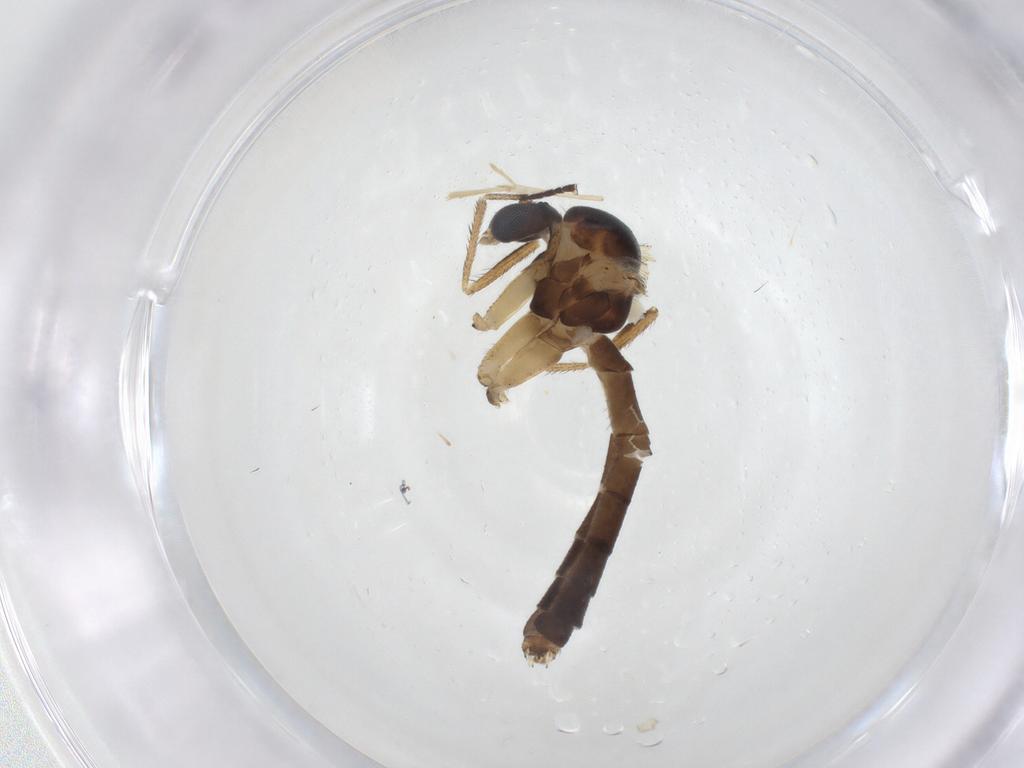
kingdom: Animalia
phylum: Arthropoda
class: Insecta
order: Diptera
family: Chironomidae
